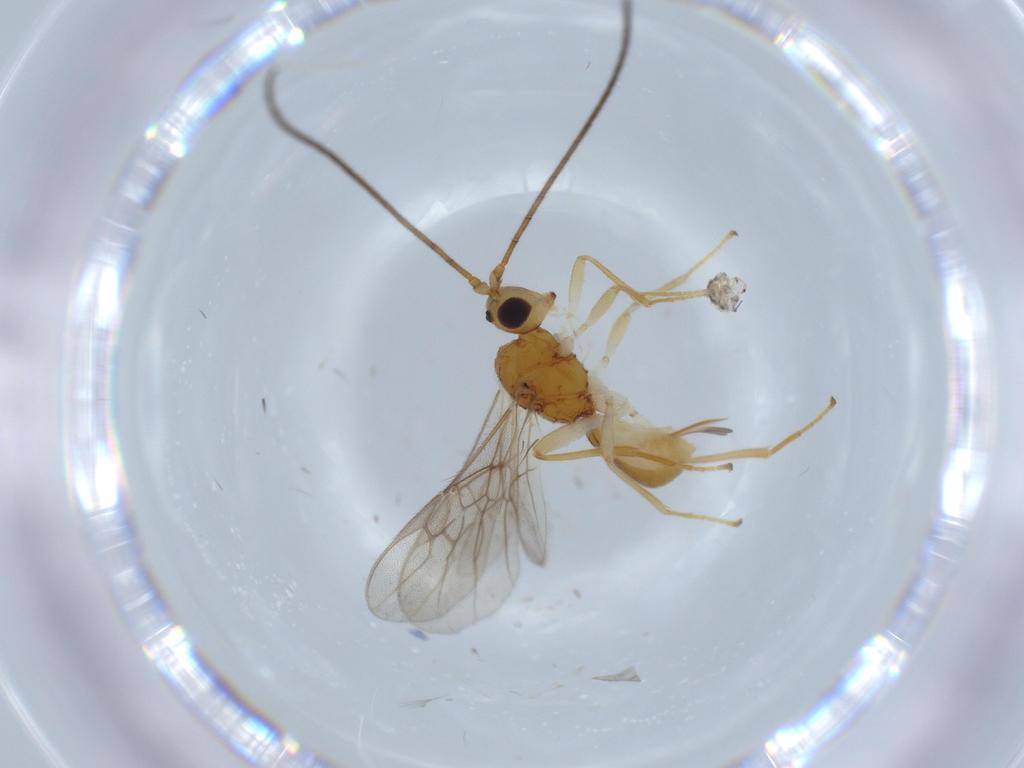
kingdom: Animalia
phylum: Arthropoda
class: Insecta
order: Hymenoptera
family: Braconidae
